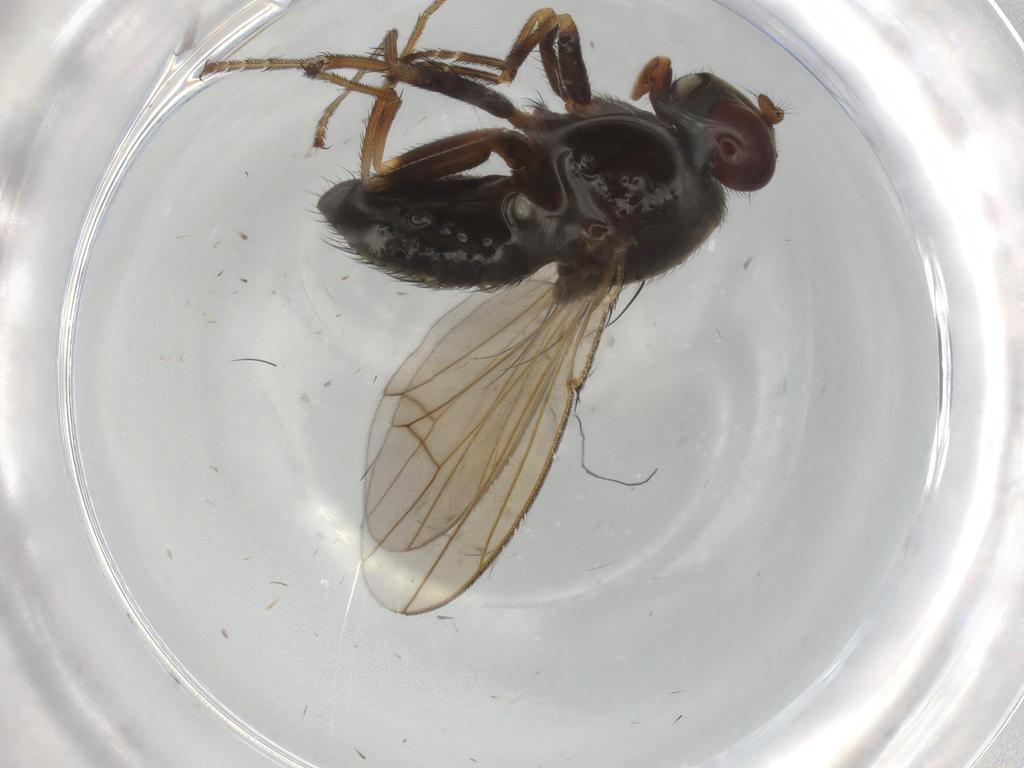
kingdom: Animalia
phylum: Arthropoda
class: Insecta
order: Diptera
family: Ephydridae
